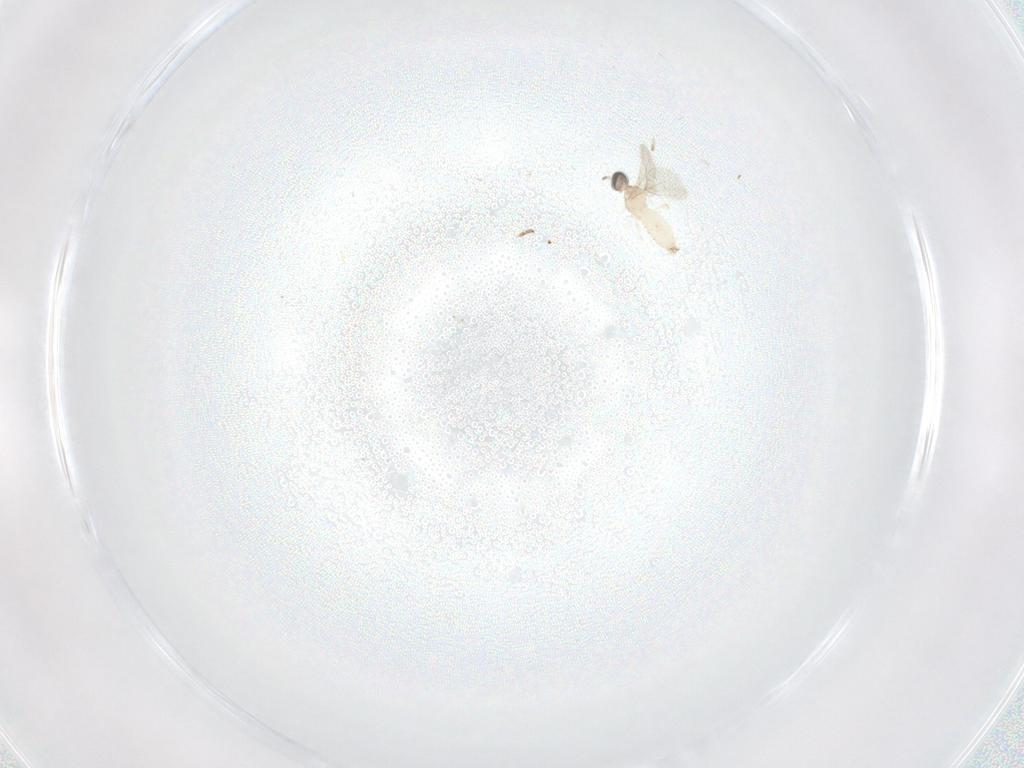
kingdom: Animalia
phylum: Arthropoda
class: Insecta
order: Diptera
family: Cecidomyiidae
